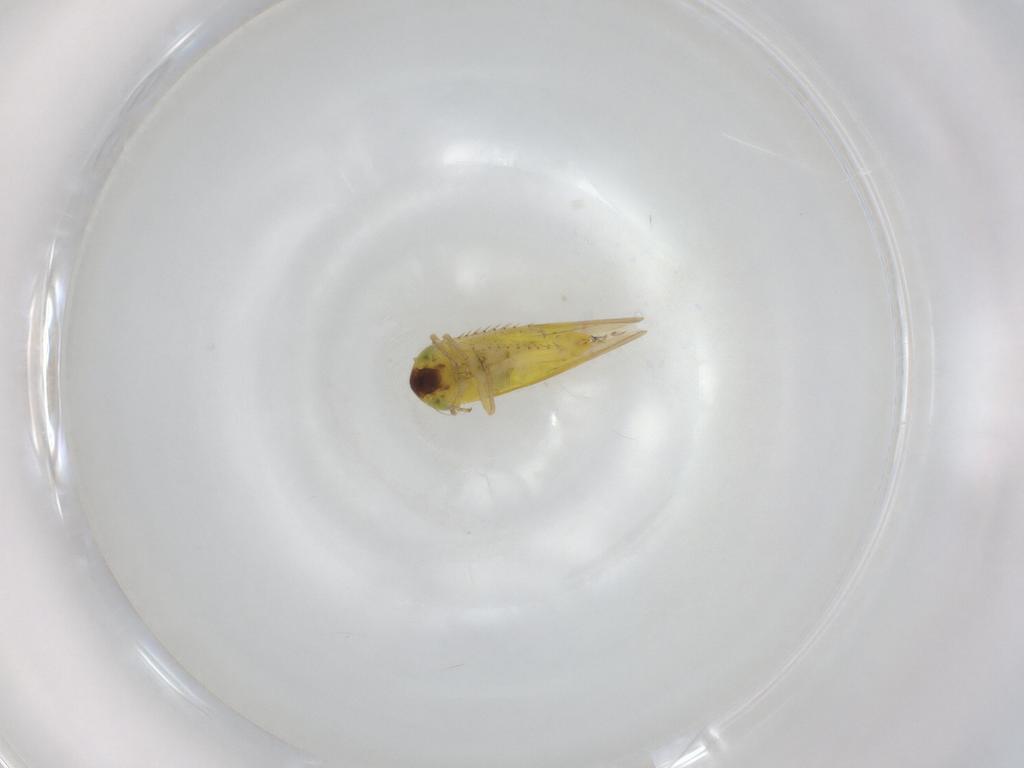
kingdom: Animalia
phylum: Arthropoda
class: Insecta
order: Hemiptera
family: Cicadellidae
